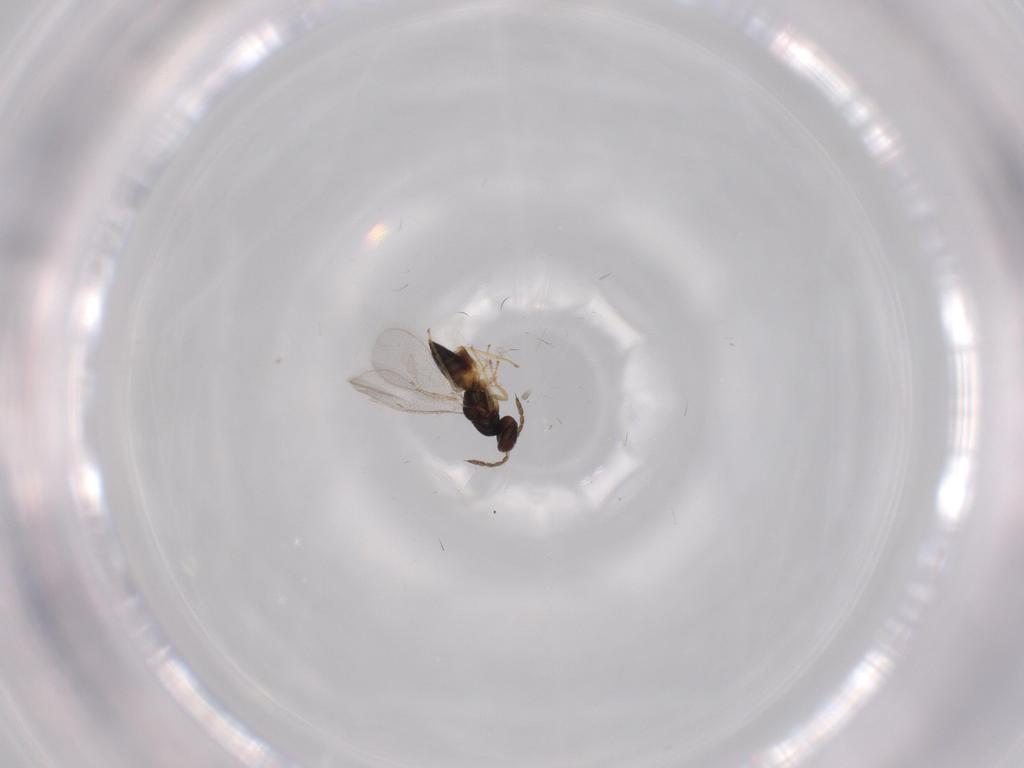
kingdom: Animalia
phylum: Arthropoda
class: Insecta
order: Hymenoptera
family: Eulophidae
